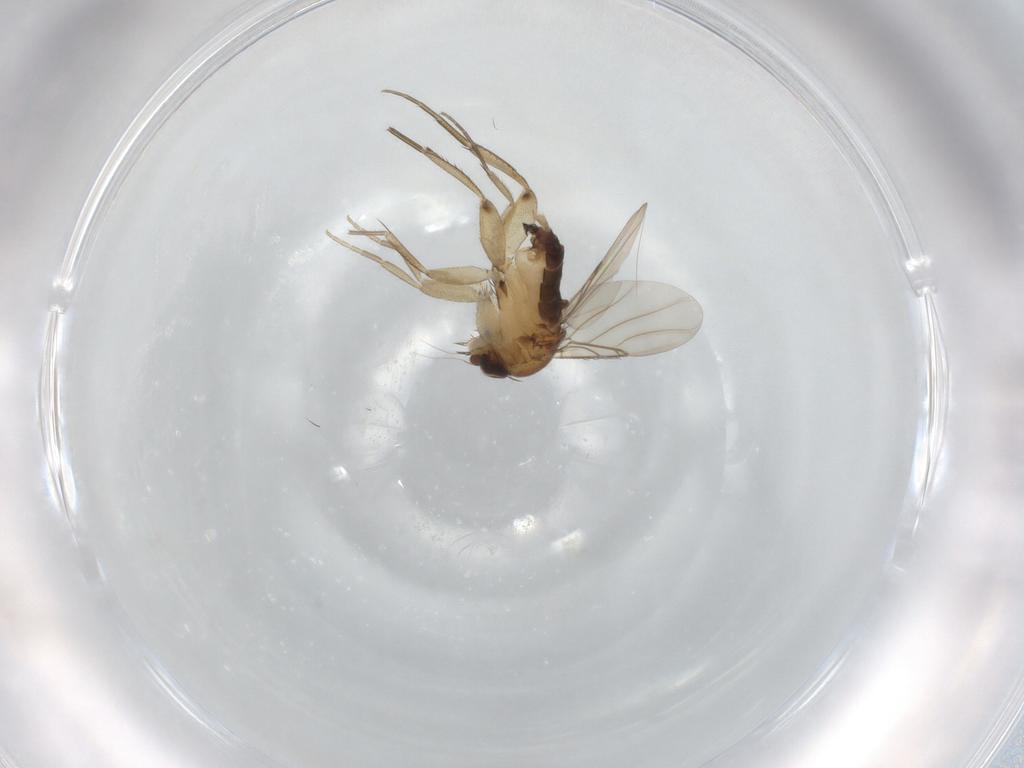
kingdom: Animalia
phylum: Arthropoda
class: Insecta
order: Diptera
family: Phoridae
